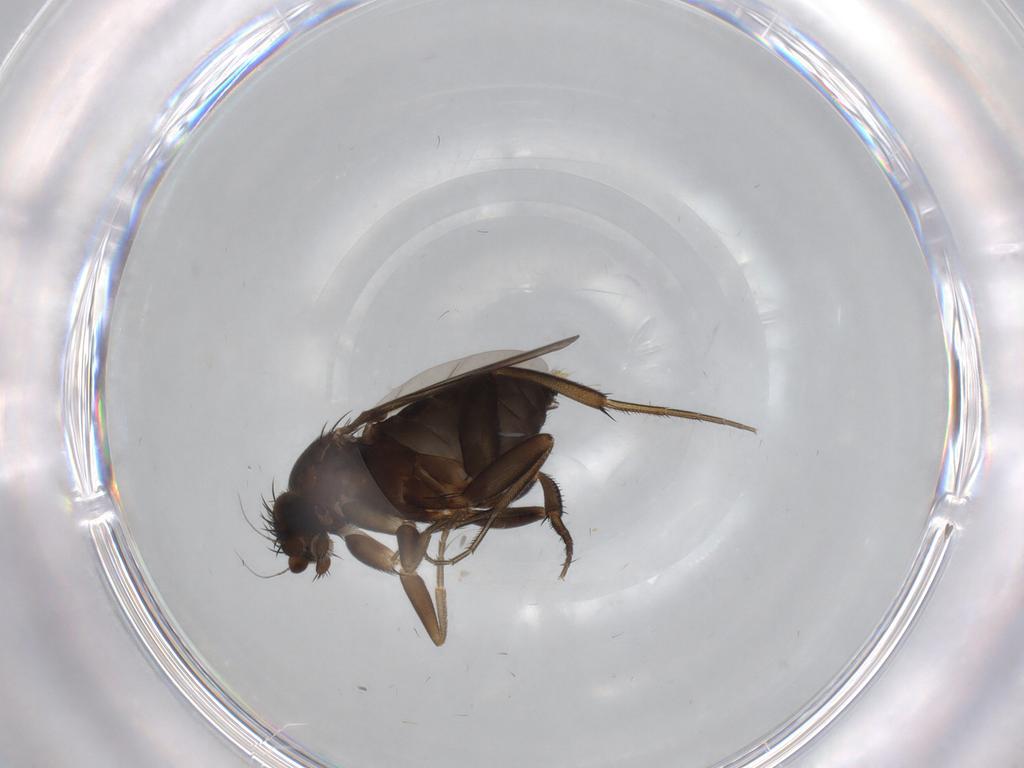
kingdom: Animalia
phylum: Arthropoda
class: Insecta
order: Diptera
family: Phoridae
